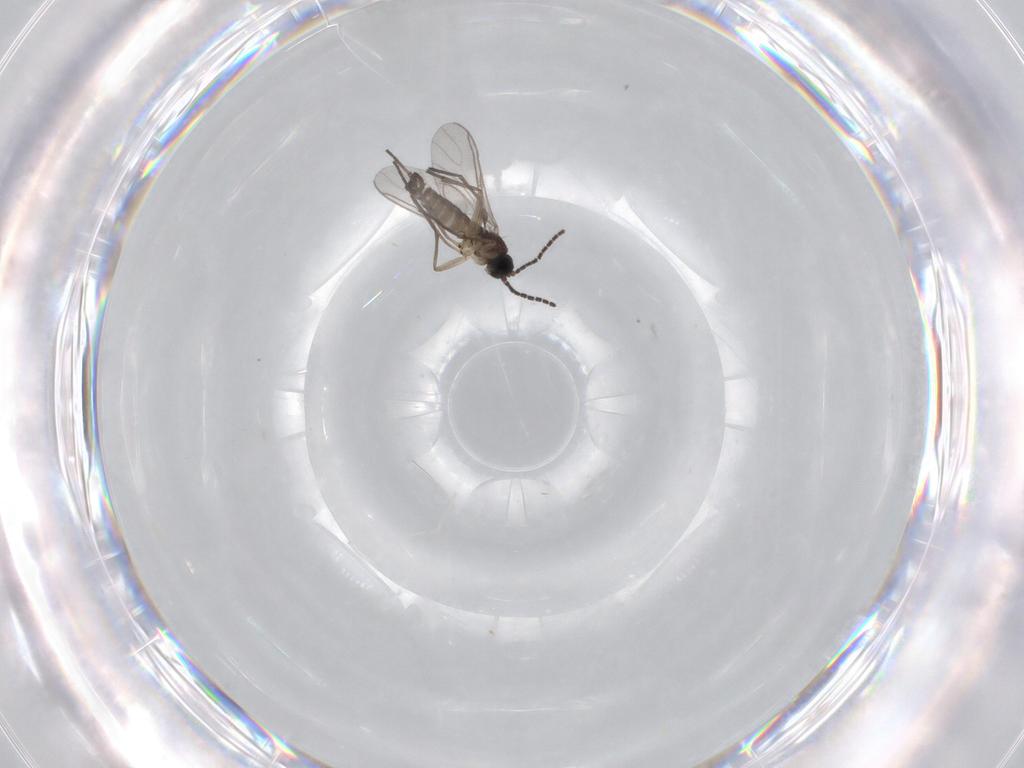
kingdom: Animalia
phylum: Arthropoda
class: Insecta
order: Diptera
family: Sciaridae
